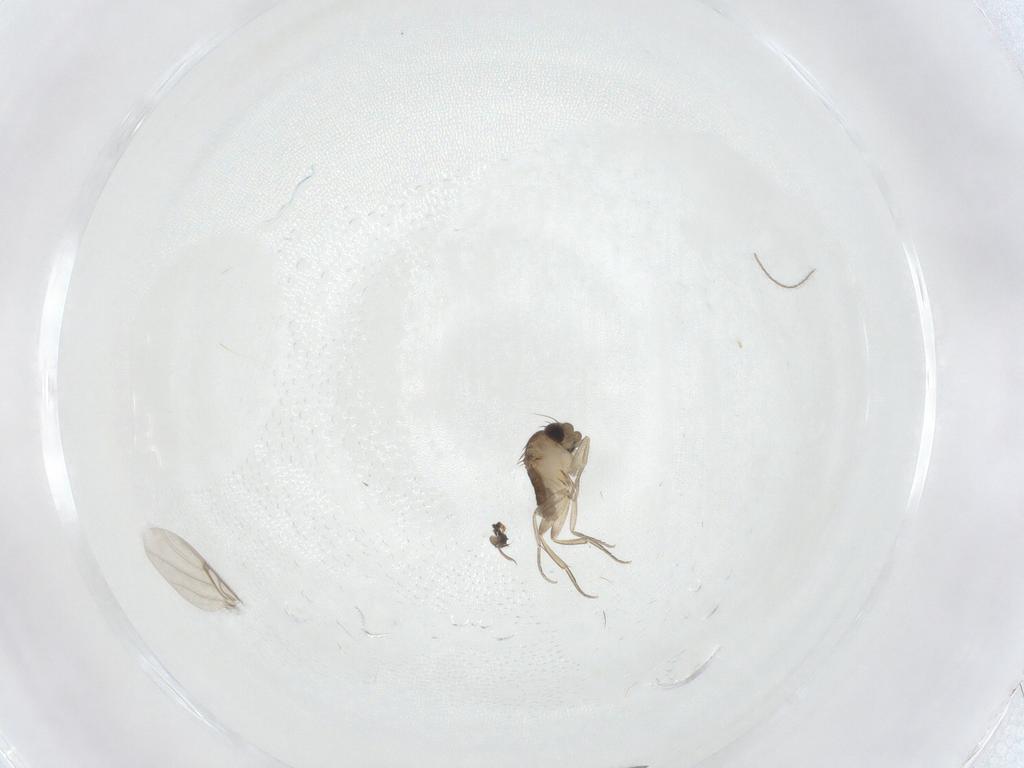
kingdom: Animalia
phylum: Arthropoda
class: Insecta
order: Diptera
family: Phoridae
